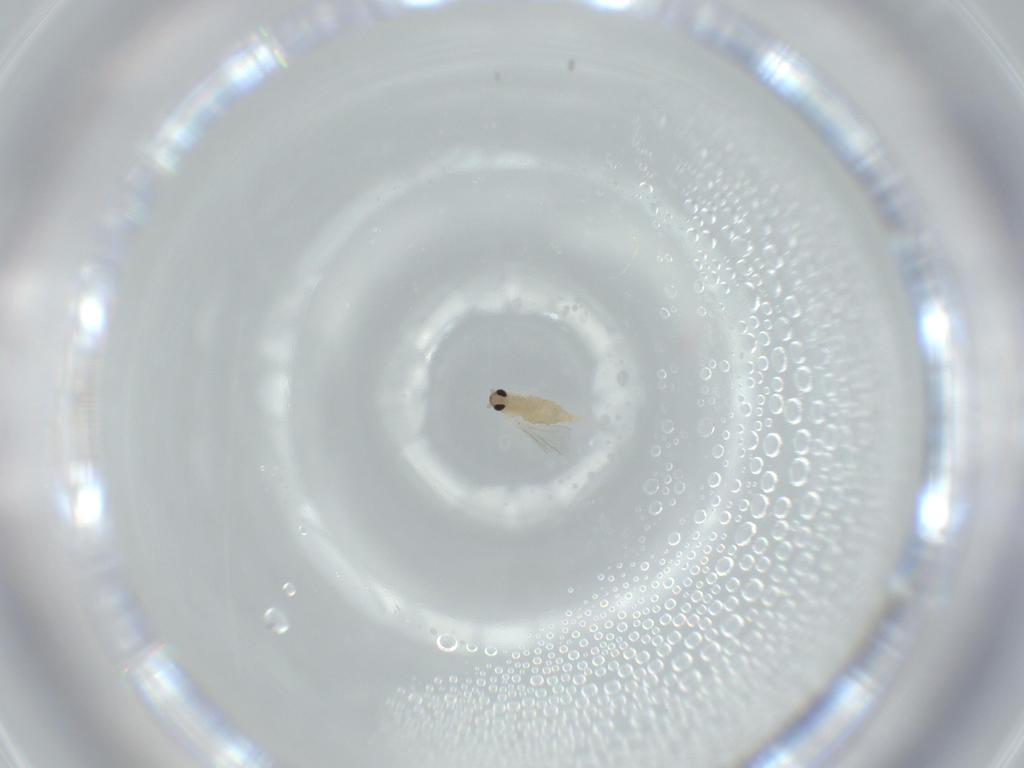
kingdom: Animalia
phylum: Arthropoda
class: Insecta
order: Diptera
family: Cecidomyiidae
